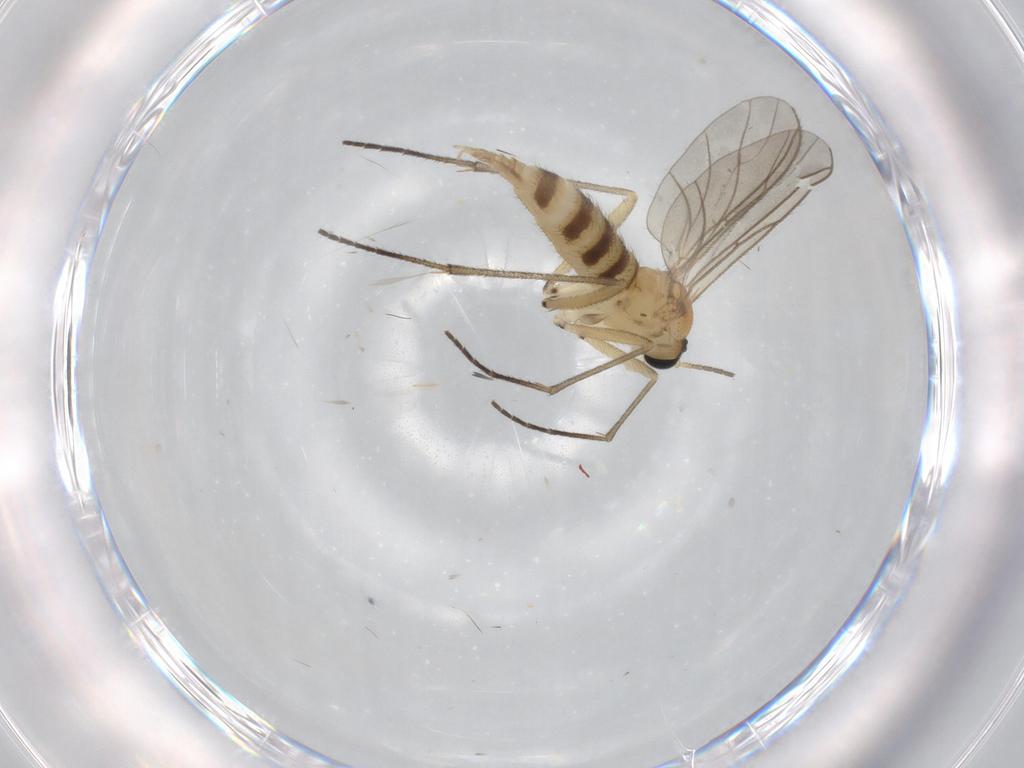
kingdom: Animalia
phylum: Arthropoda
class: Insecta
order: Diptera
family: Sciaridae
